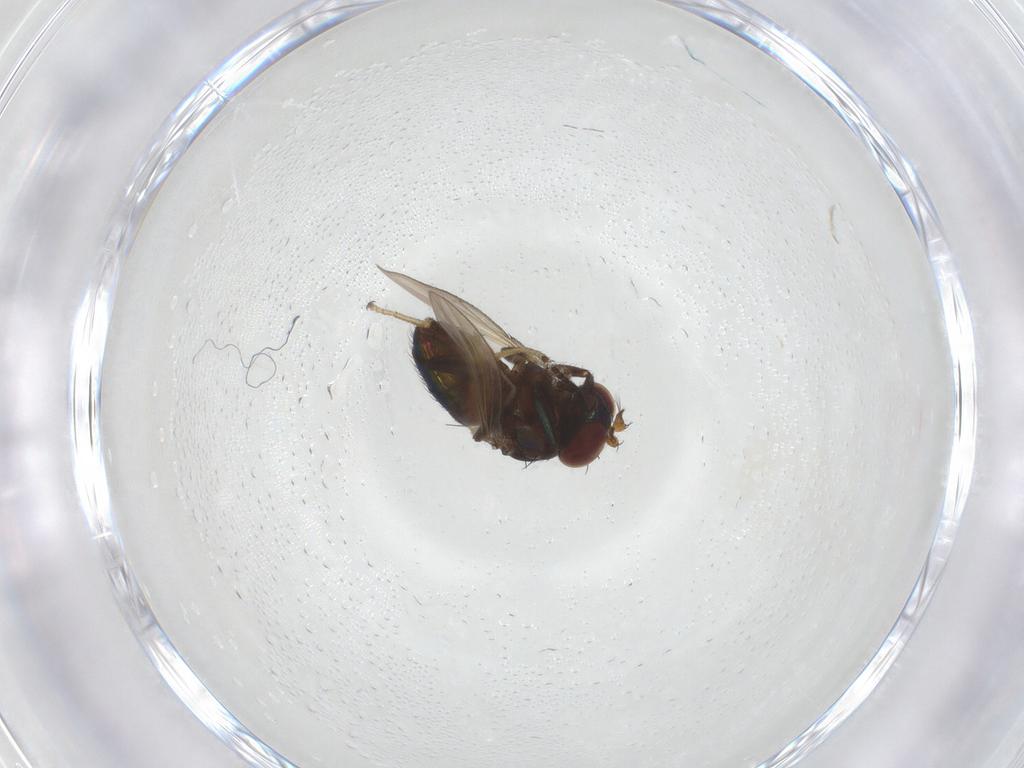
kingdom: Animalia
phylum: Arthropoda
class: Insecta
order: Diptera
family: Ephydridae
